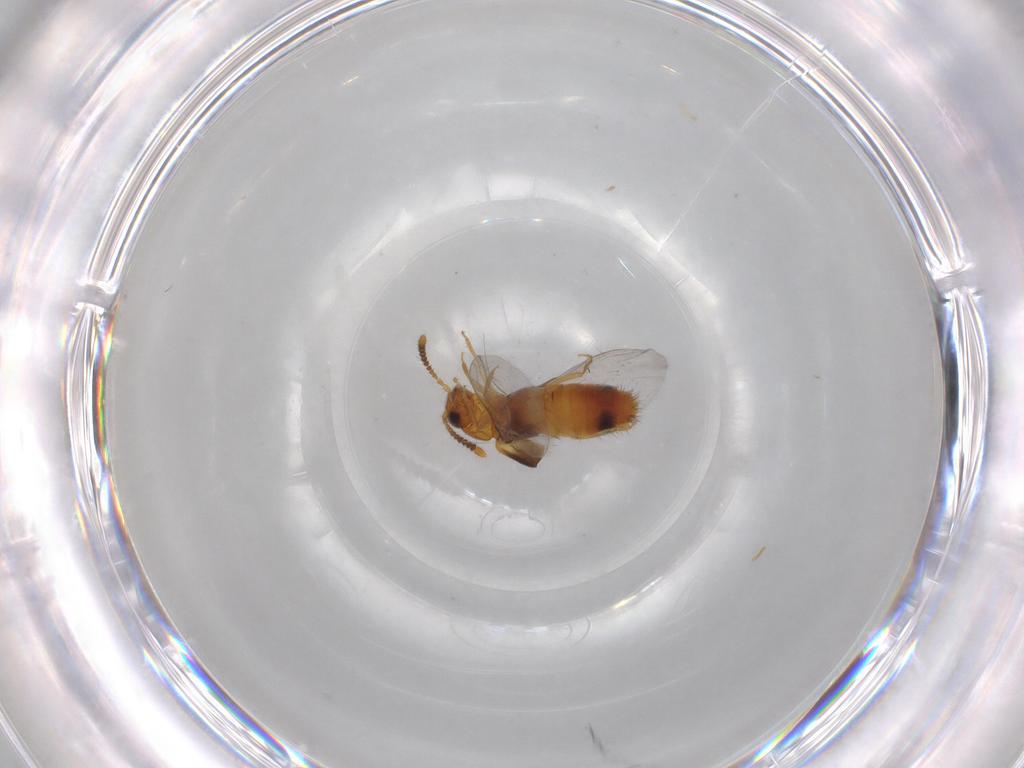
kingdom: Animalia
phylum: Arthropoda
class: Insecta
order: Coleoptera
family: Staphylinidae
